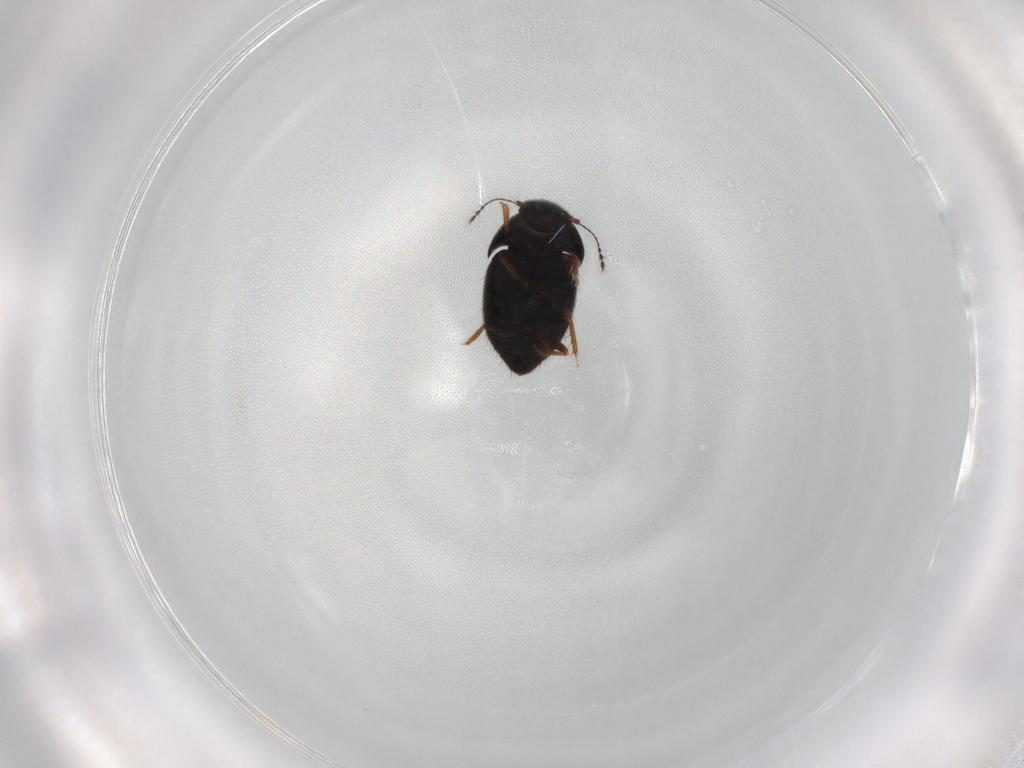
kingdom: Animalia
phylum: Arthropoda
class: Insecta
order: Coleoptera
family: Ptiliidae
